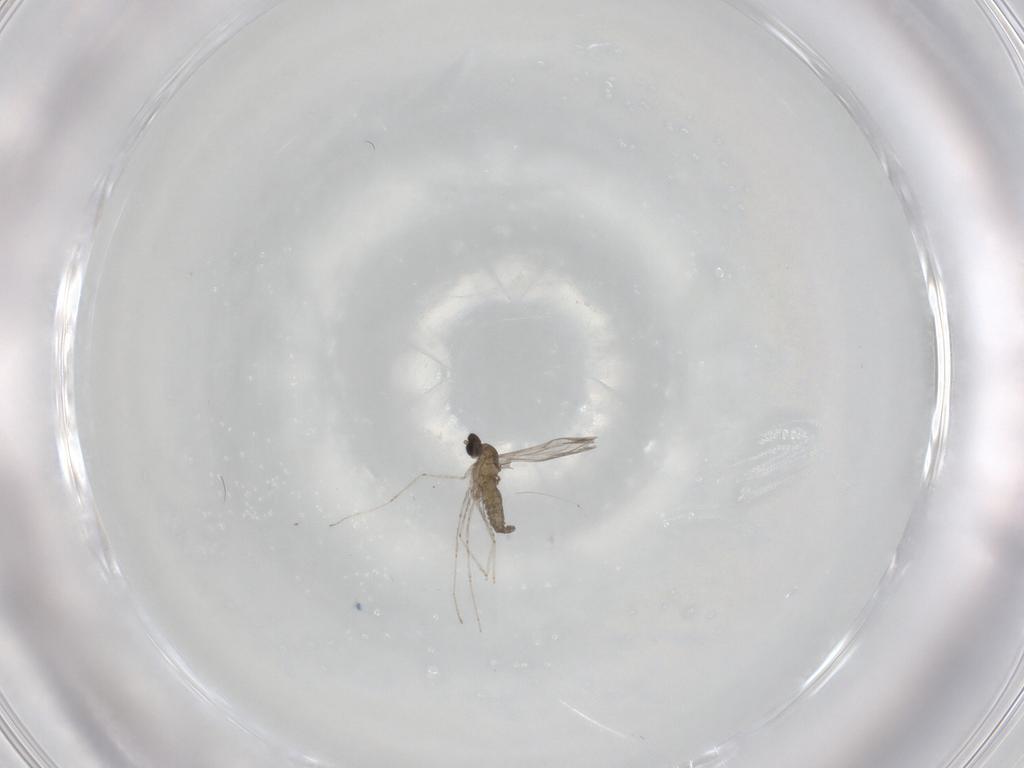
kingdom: Animalia
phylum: Arthropoda
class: Insecta
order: Diptera
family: Cecidomyiidae
